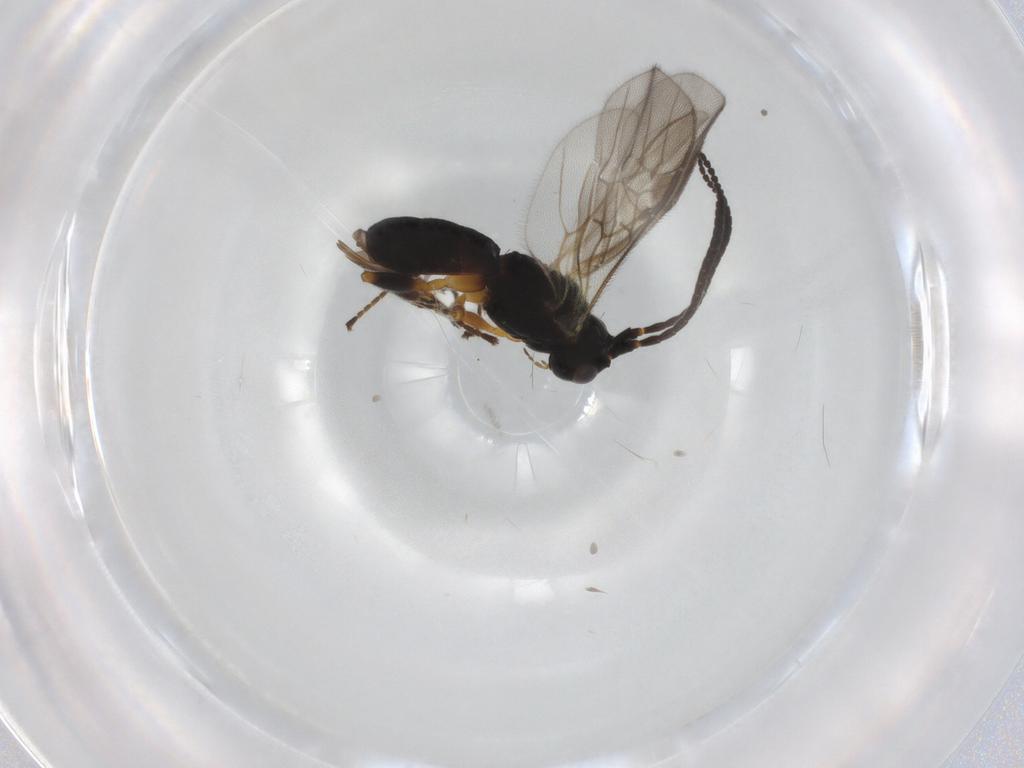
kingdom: Animalia
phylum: Arthropoda
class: Insecta
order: Hymenoptera
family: Braconidae
